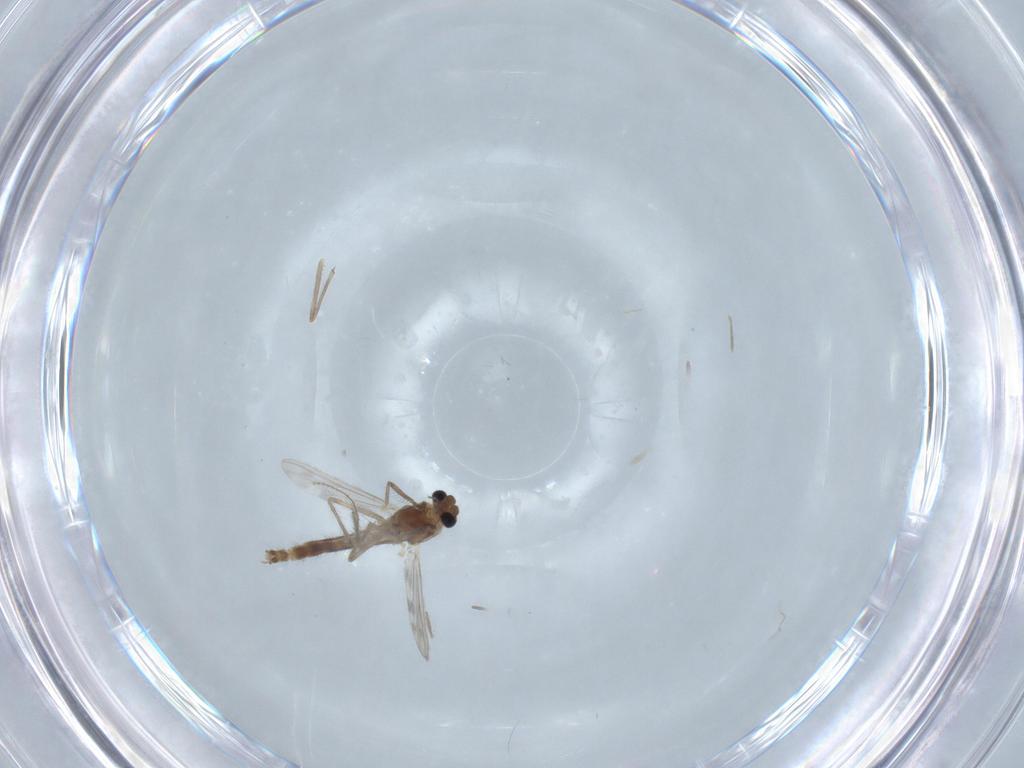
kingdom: Animalia
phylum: Arthropoda
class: Insecta
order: Diptera
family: Chironomidae
